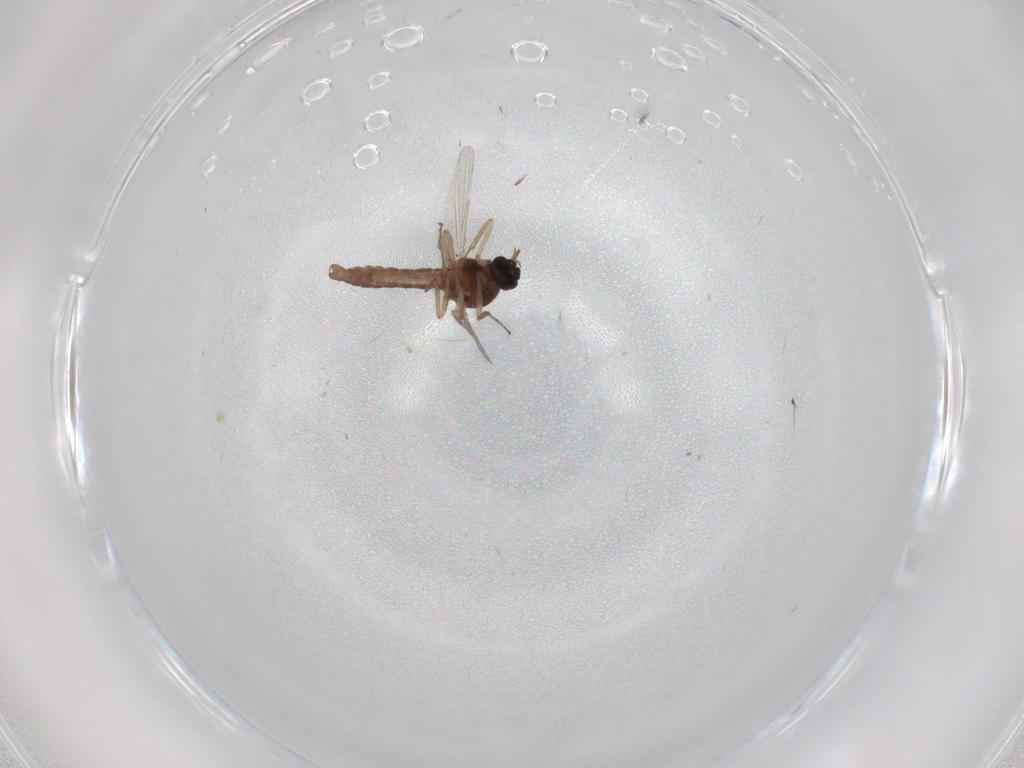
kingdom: Animalia
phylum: Arthropoda
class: Insecta
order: Diptera
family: Ceratopogonidae
